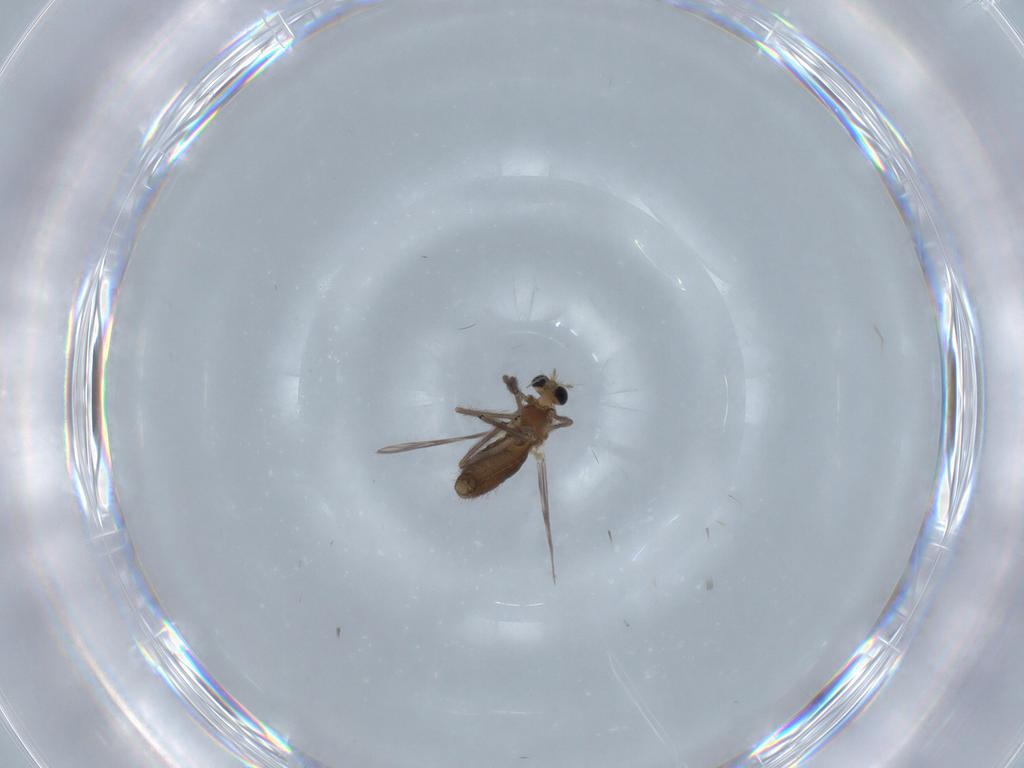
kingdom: Animalia
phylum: Arthropoda
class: Insecta
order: Diptera
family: Chironomidae
